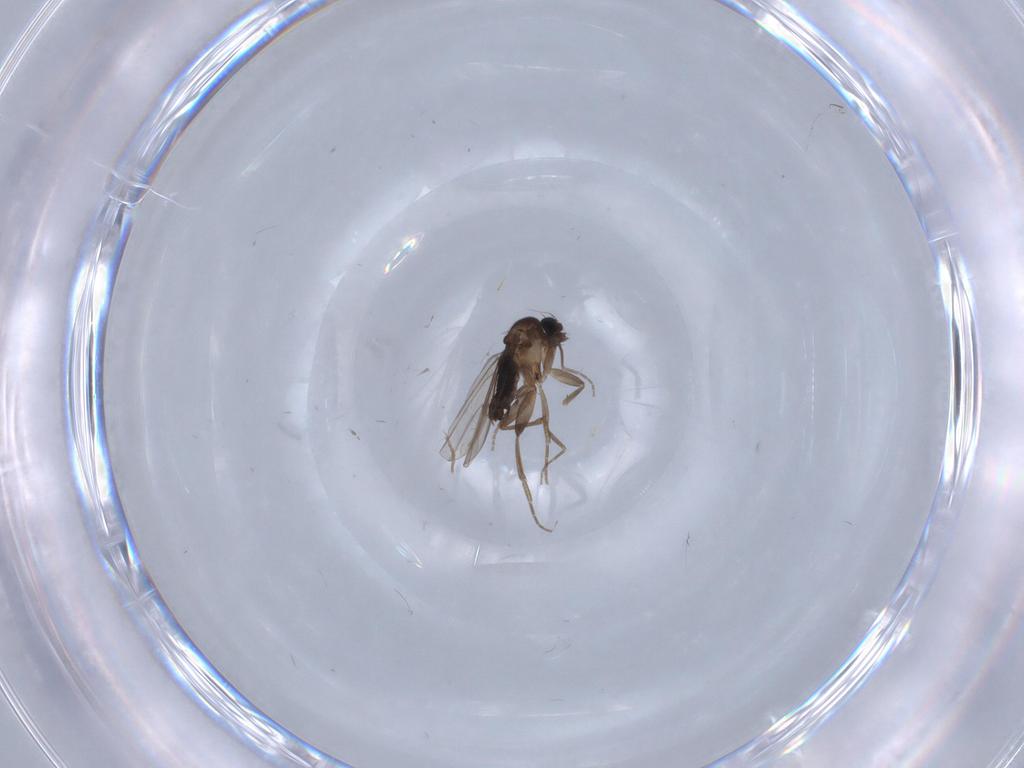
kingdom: Animalia
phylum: Arthropoda
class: Insecta
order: Diptera
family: Phoridae
